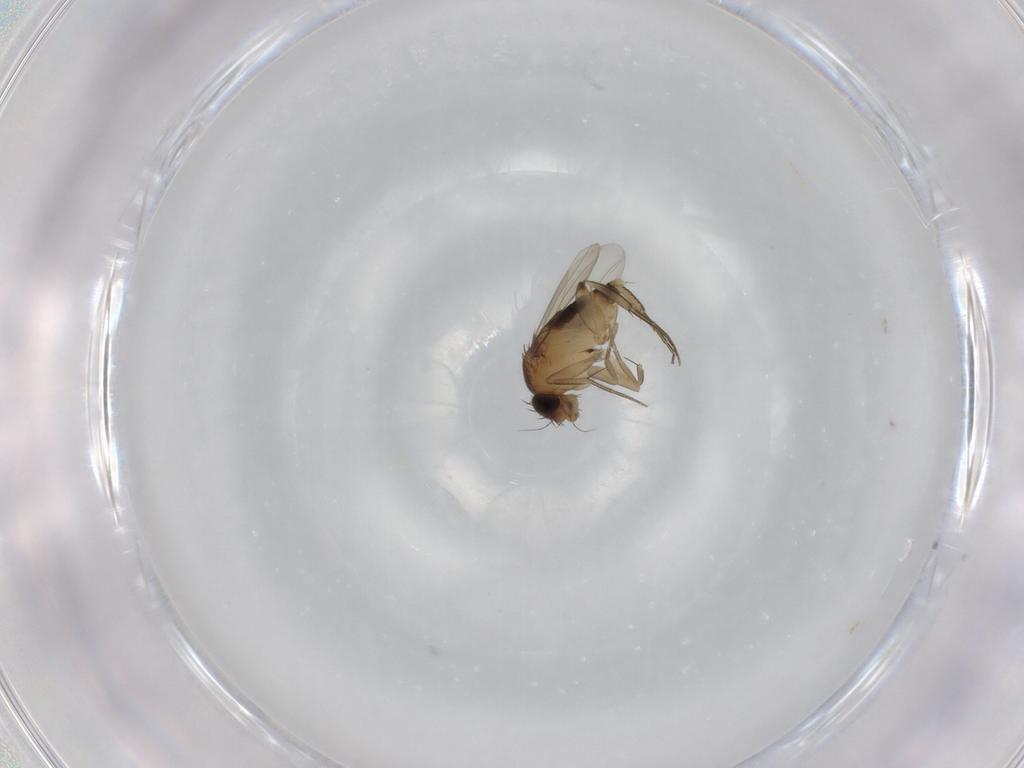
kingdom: Animalia
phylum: Arthropoda
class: Insecta
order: Diptera
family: Phoridae
